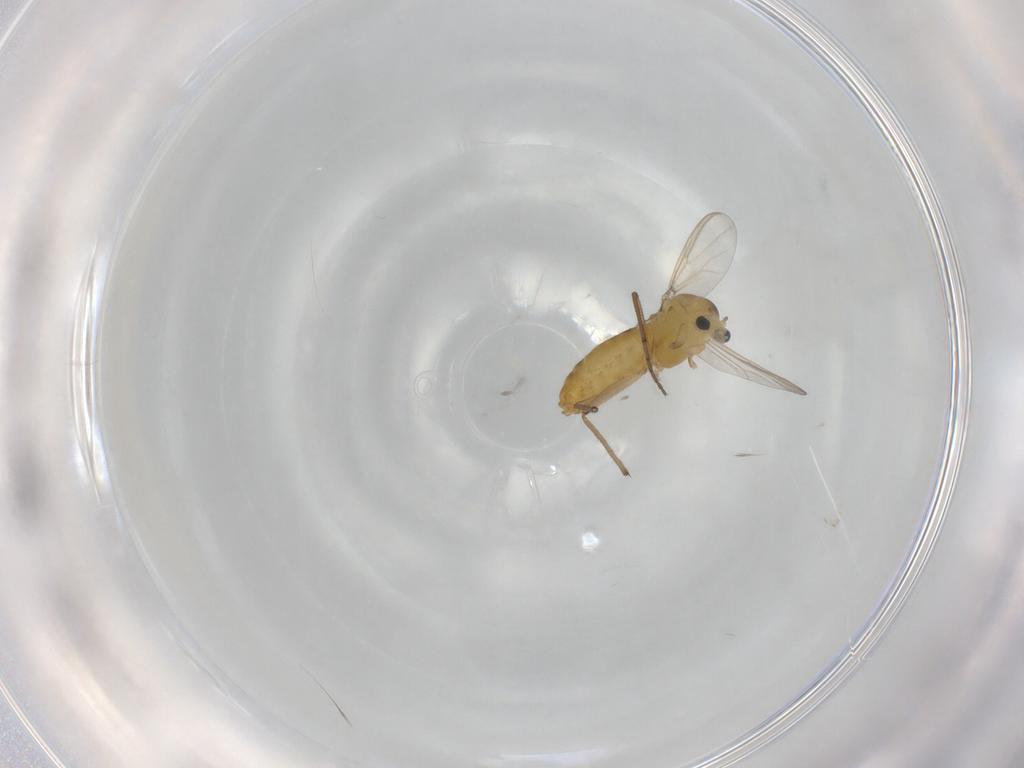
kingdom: Animalia
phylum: Arthropoda
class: Insecta
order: Diptera
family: Chironomidae
